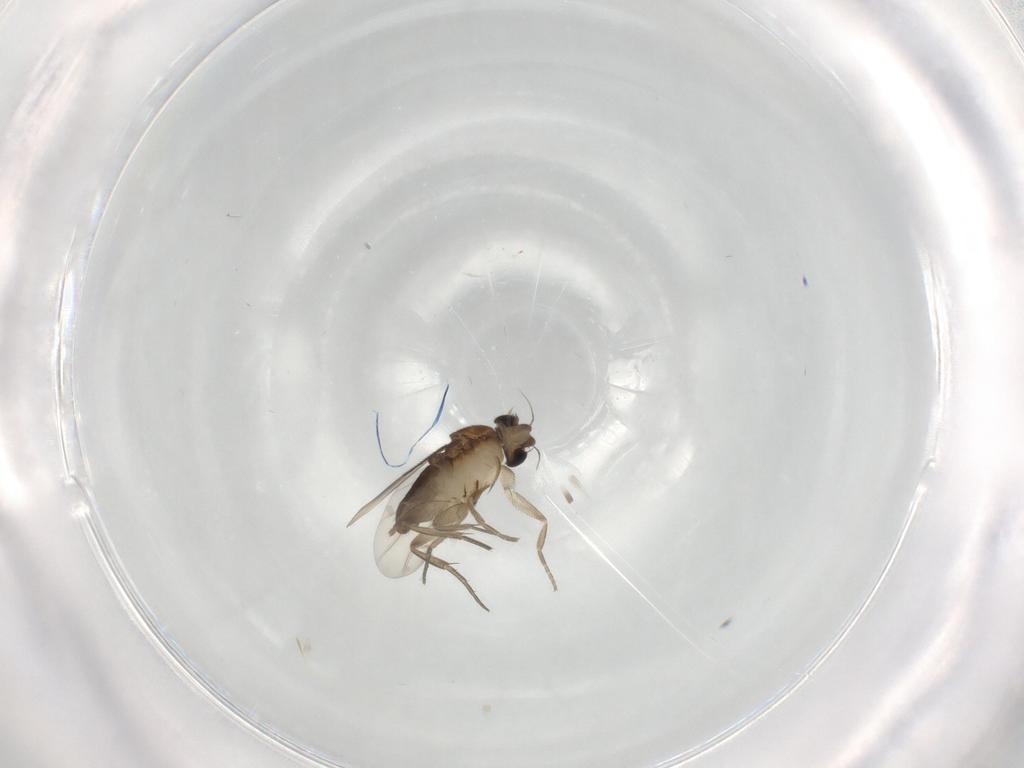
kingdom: Animalia
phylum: Arthropoda
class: Insecta
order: Diptera
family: Phoridae
